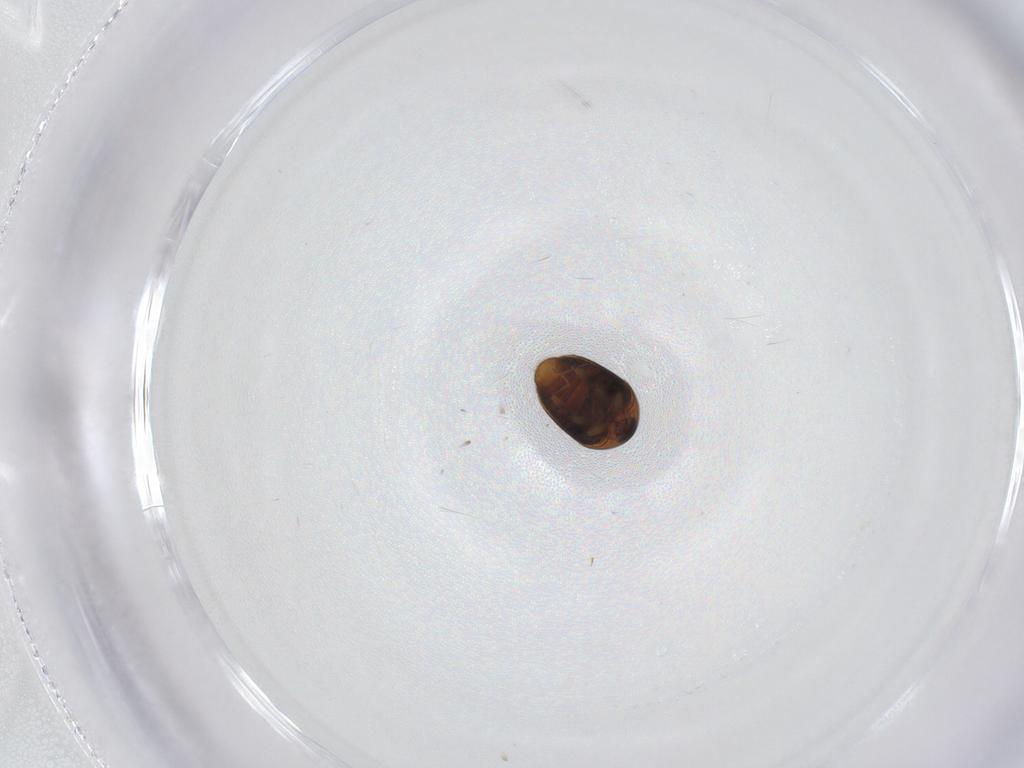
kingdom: Animalia
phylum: Arthropoda
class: Insecta
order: Coleoptera
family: Corylophidae
